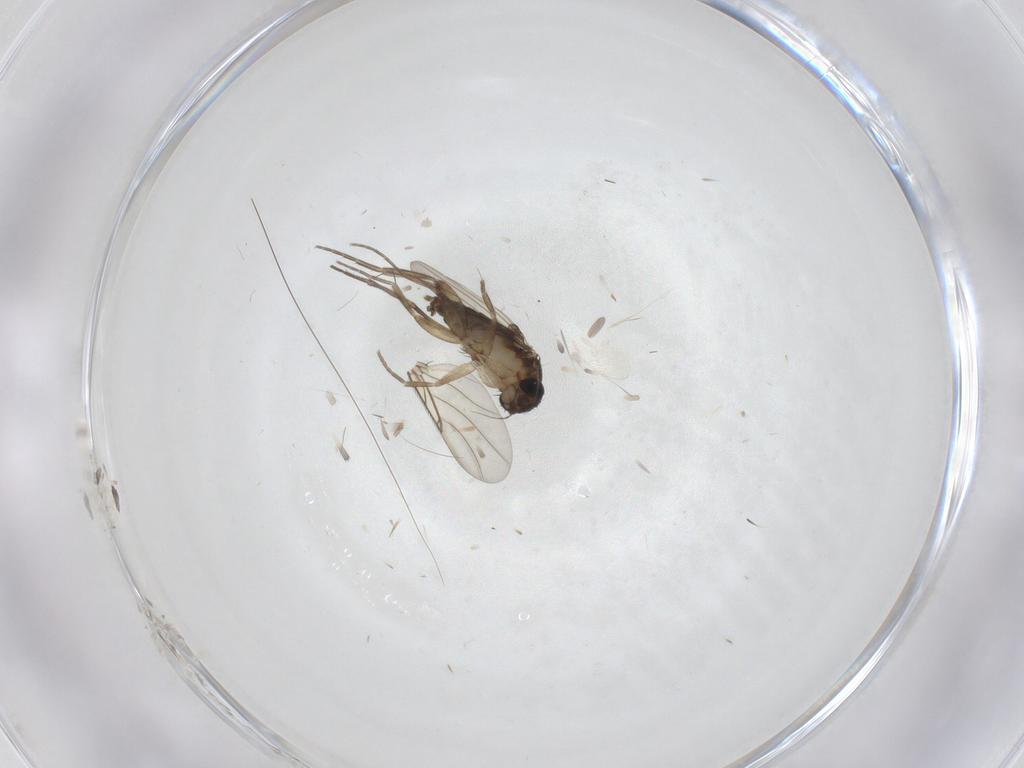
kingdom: Animalia
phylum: Arthropoda
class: Insecta
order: Diptera
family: Phoridae
